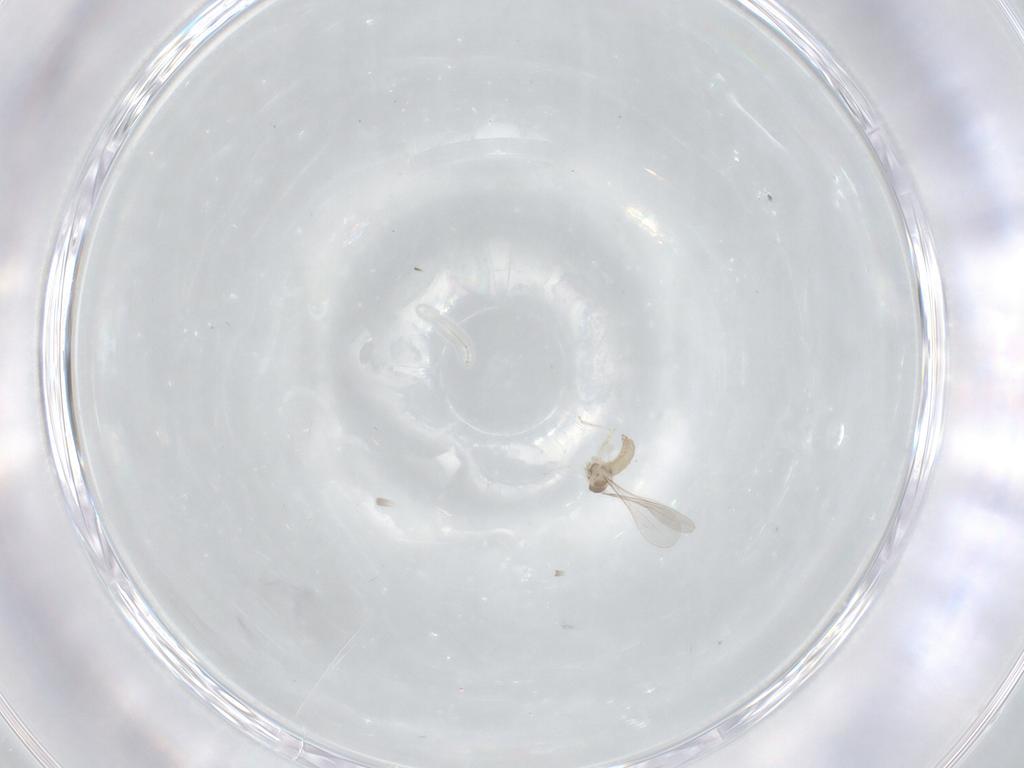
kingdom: Animalia
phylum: Arthropoda
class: Insecta
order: Diptera
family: Cecidomyiidae
